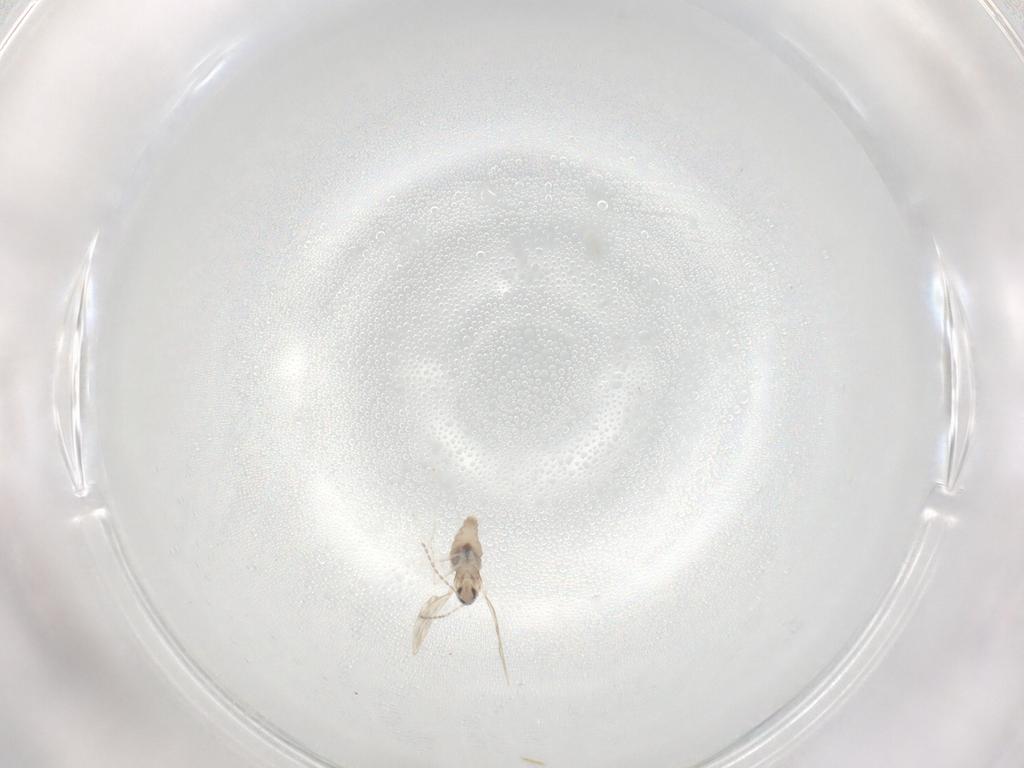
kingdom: Animalia
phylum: Arthropoda
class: Insecta
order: Diptera
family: Cecidomyiidae
